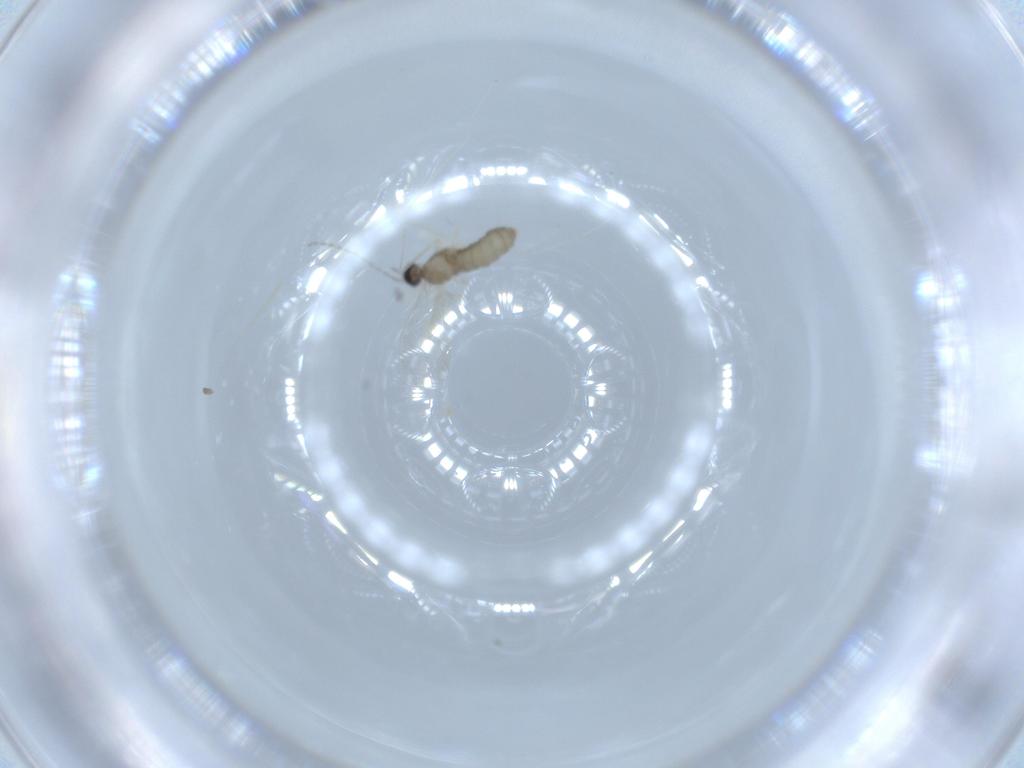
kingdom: Animalia
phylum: Arthropoda
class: Insecta
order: Diptera
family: Cecidomyiidae
